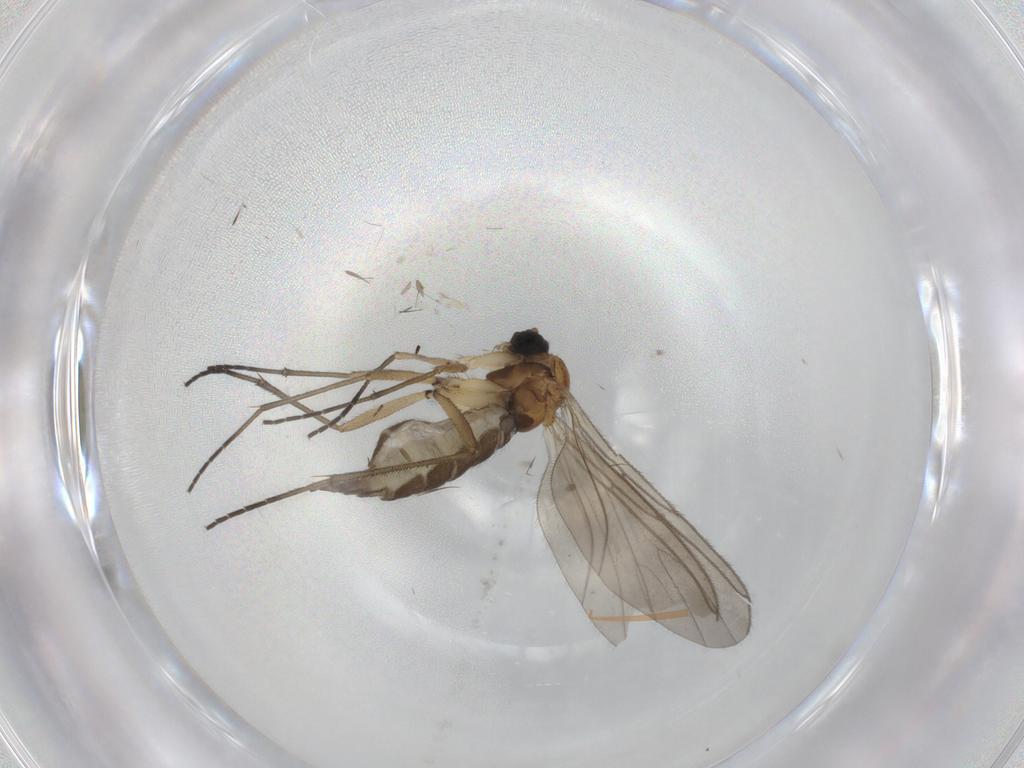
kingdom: Animalia
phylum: Arthropoda
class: Insecta
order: Diptera
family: Sciaridae
